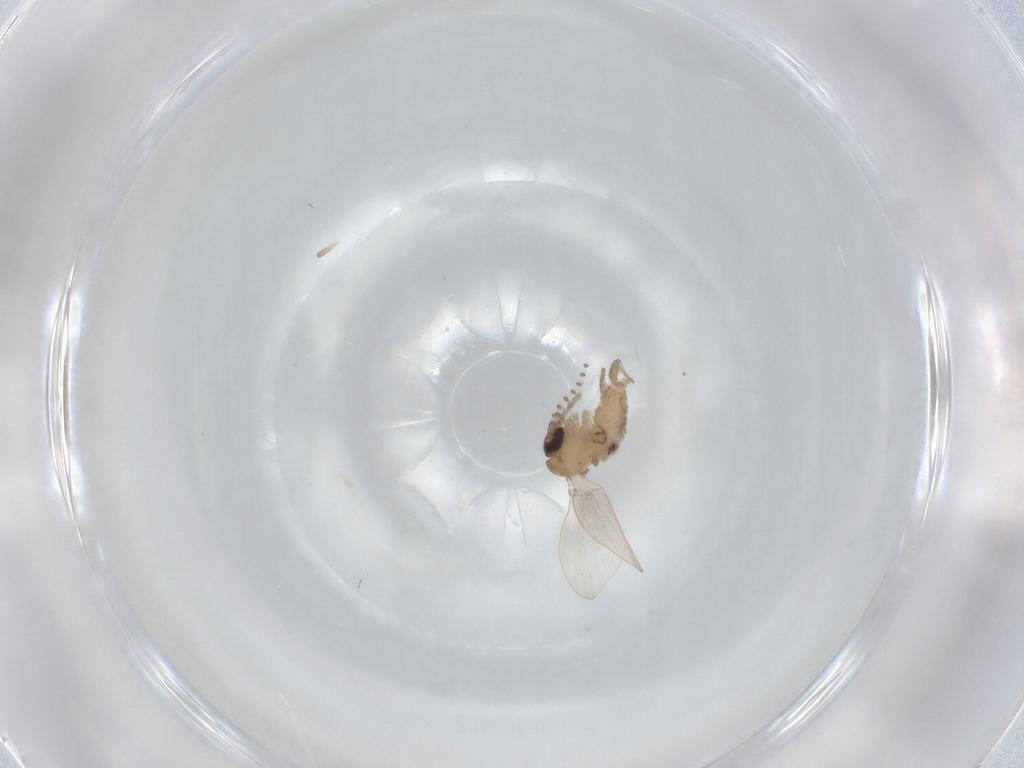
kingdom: Animalia
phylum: Arthropoda
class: Insecta
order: Diptera
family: Psychodidae
